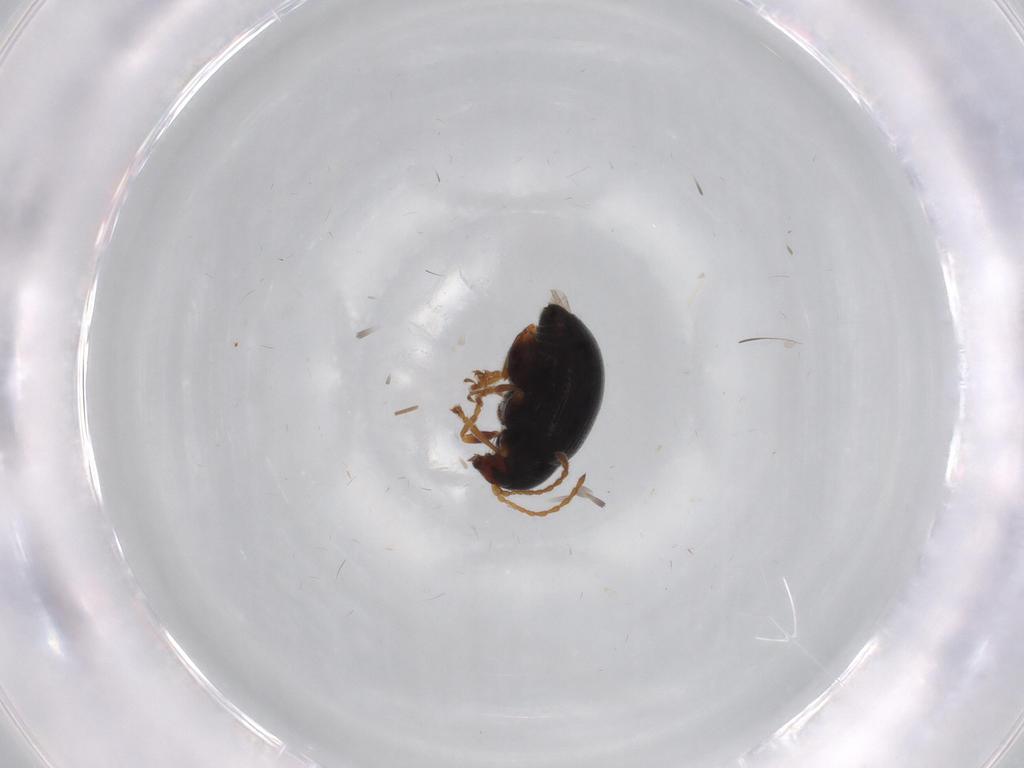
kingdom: Animalia
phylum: Arthropoda
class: Insecta
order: Coleoptera
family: Chrysomelidae
